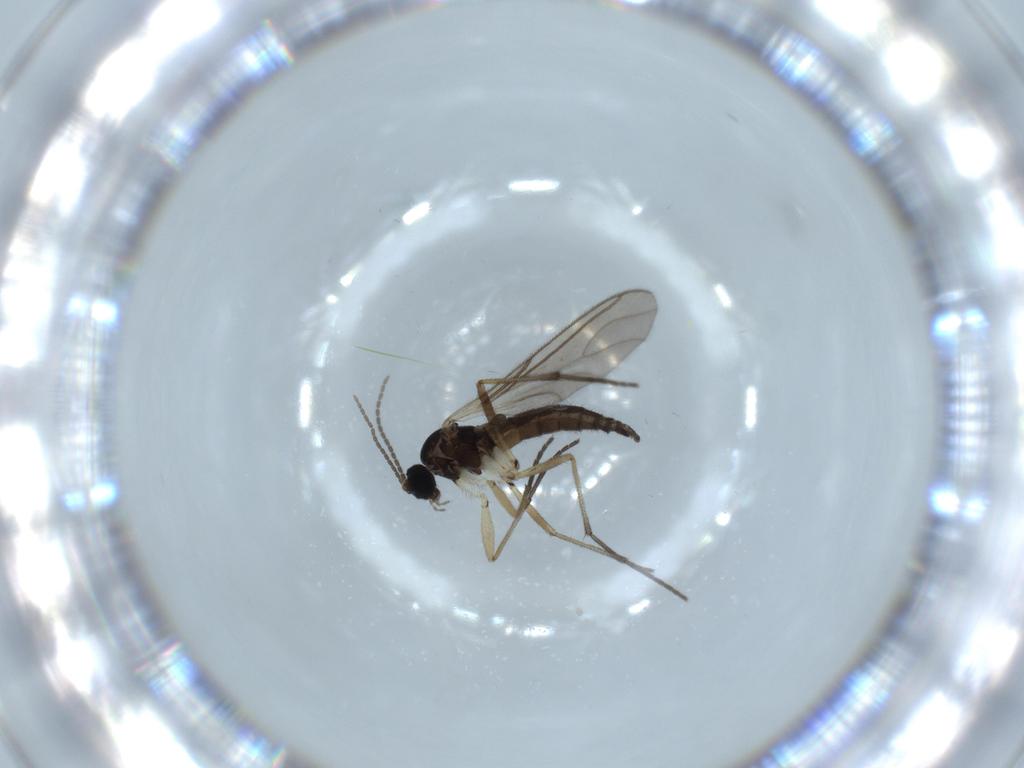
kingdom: Animalia
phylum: Arthropoda
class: Insecta
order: Diptera
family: Sciaridae
